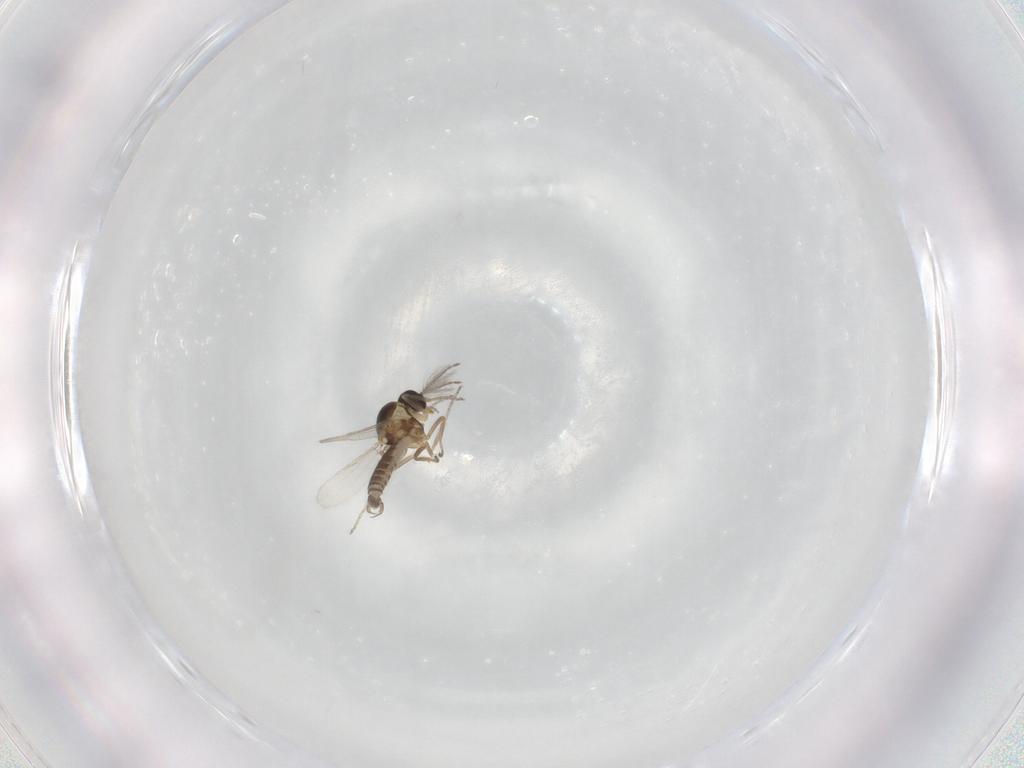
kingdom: Animalia
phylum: Arthropoda
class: Insecta
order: Diptera
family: Ceratopogonidae
